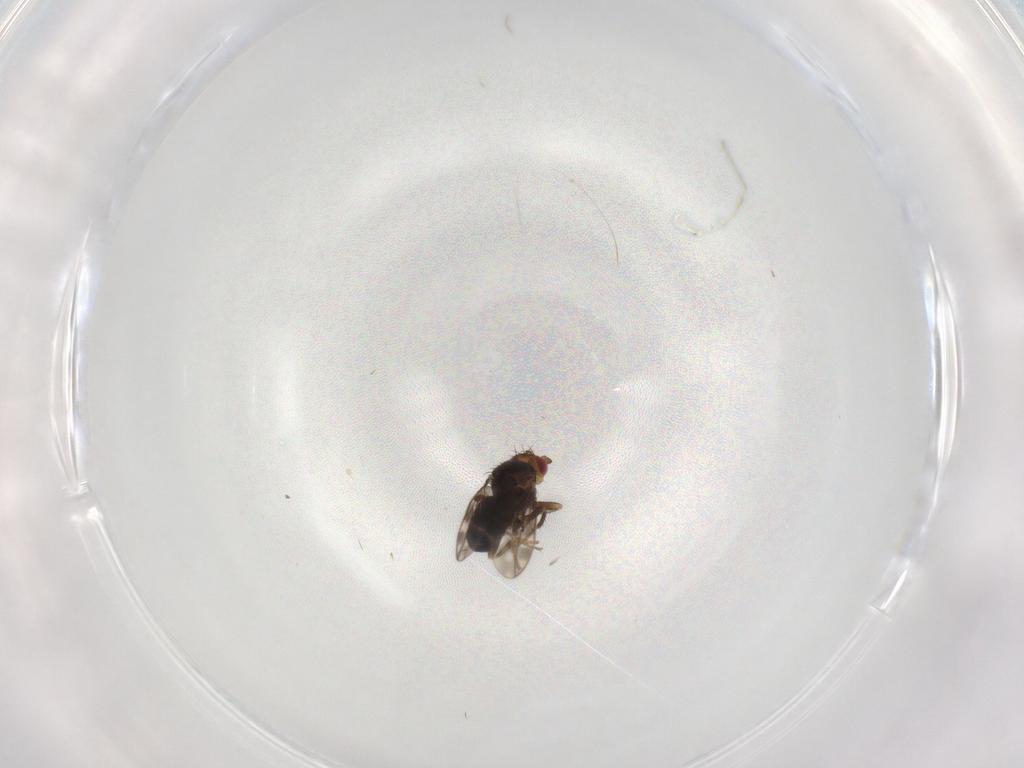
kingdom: Animalia
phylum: Arthropoda
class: Insecta
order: Diptera
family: Sphaeroceridae
